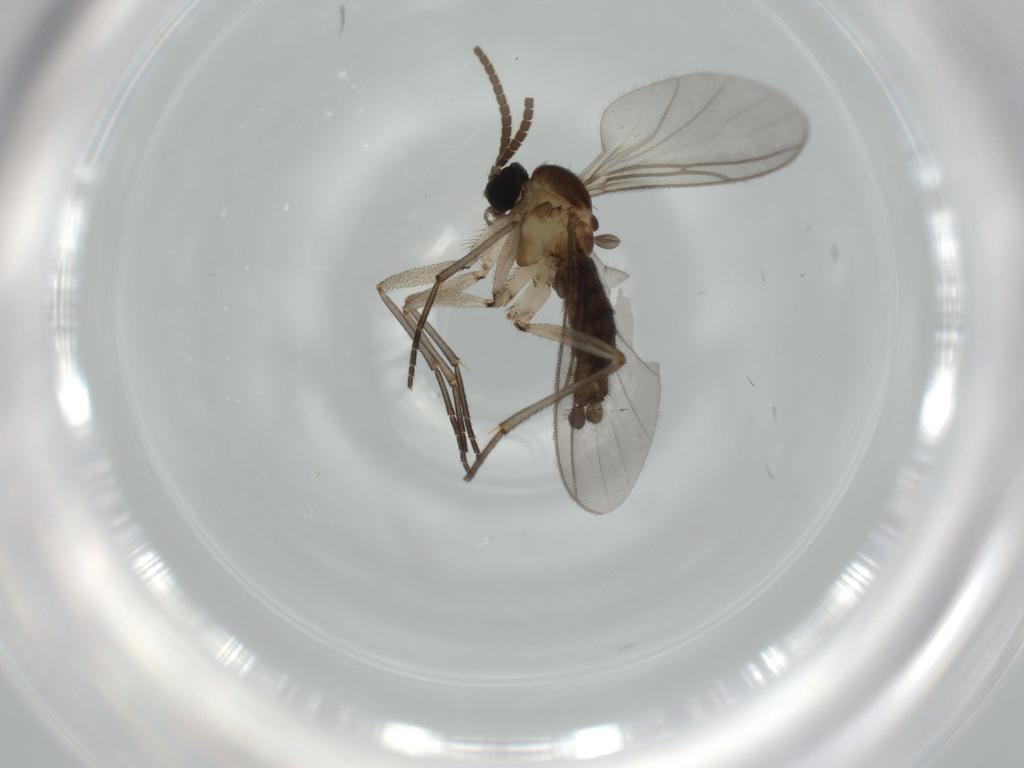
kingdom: Animalia
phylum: Arthropoda
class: Insecta
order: Diptera
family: Sciaridae
